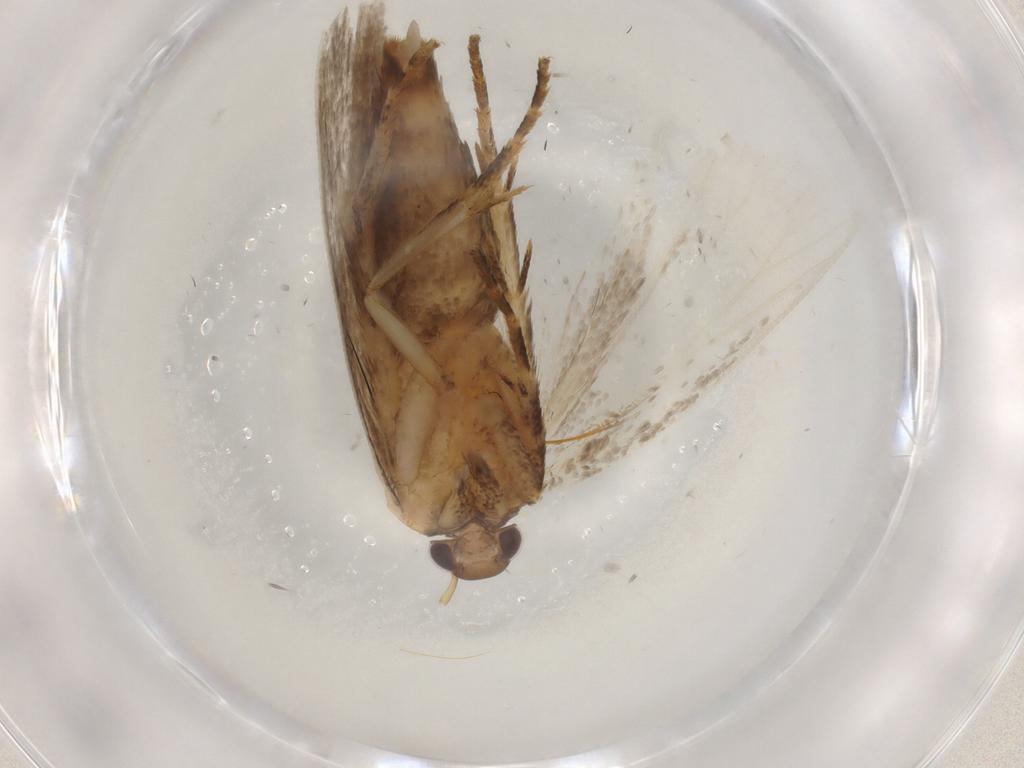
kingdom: Animalia
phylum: Arthropoda
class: Insecta
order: Lepidoptera
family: Gelechiidae
